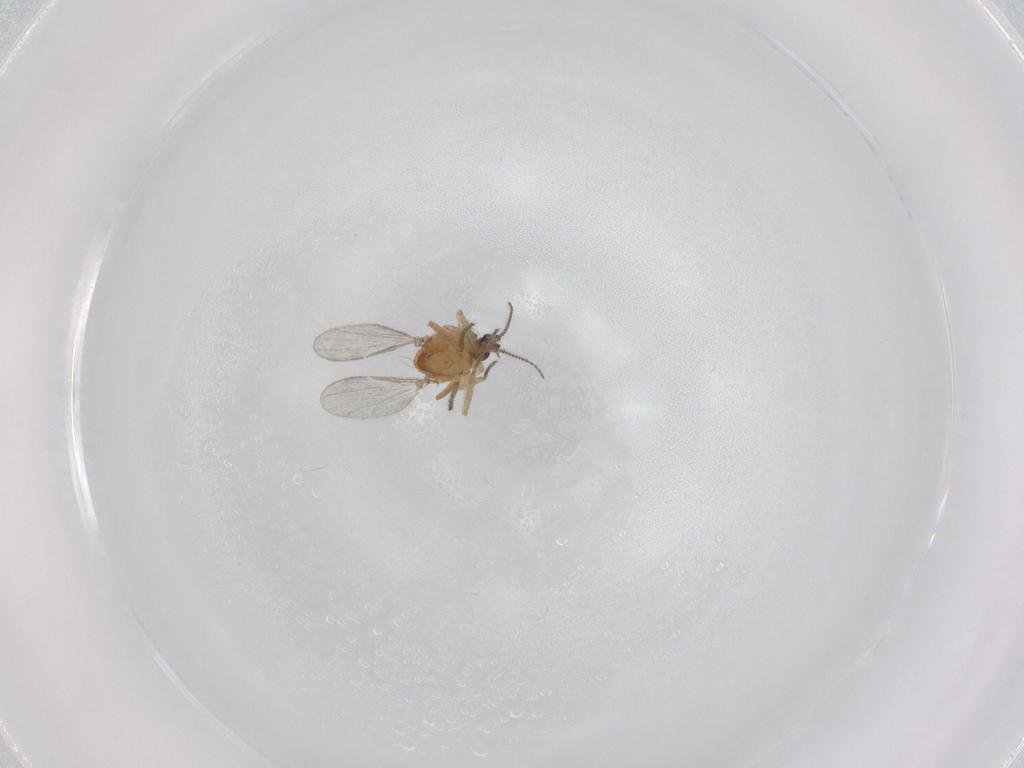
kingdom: Animalia
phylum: Arthropoda
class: Insecta
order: Diptera
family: Ceratopogonidae
